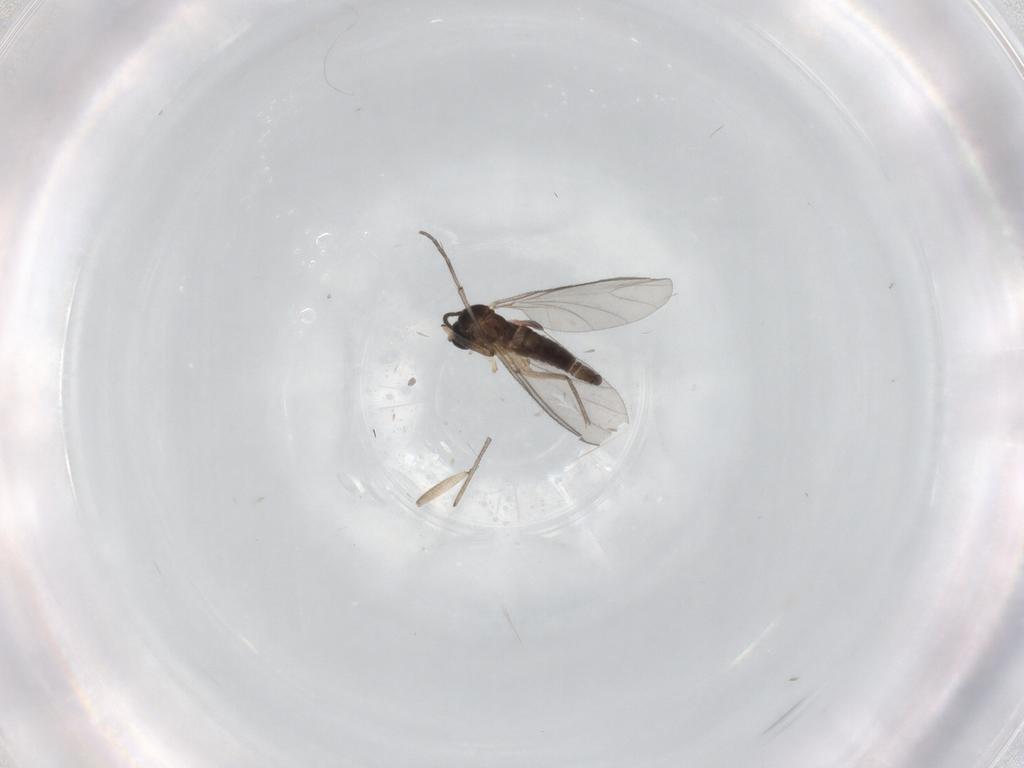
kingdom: Animalia
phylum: Arthropoda
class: Insecta
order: Diptera
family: Sciaridae
